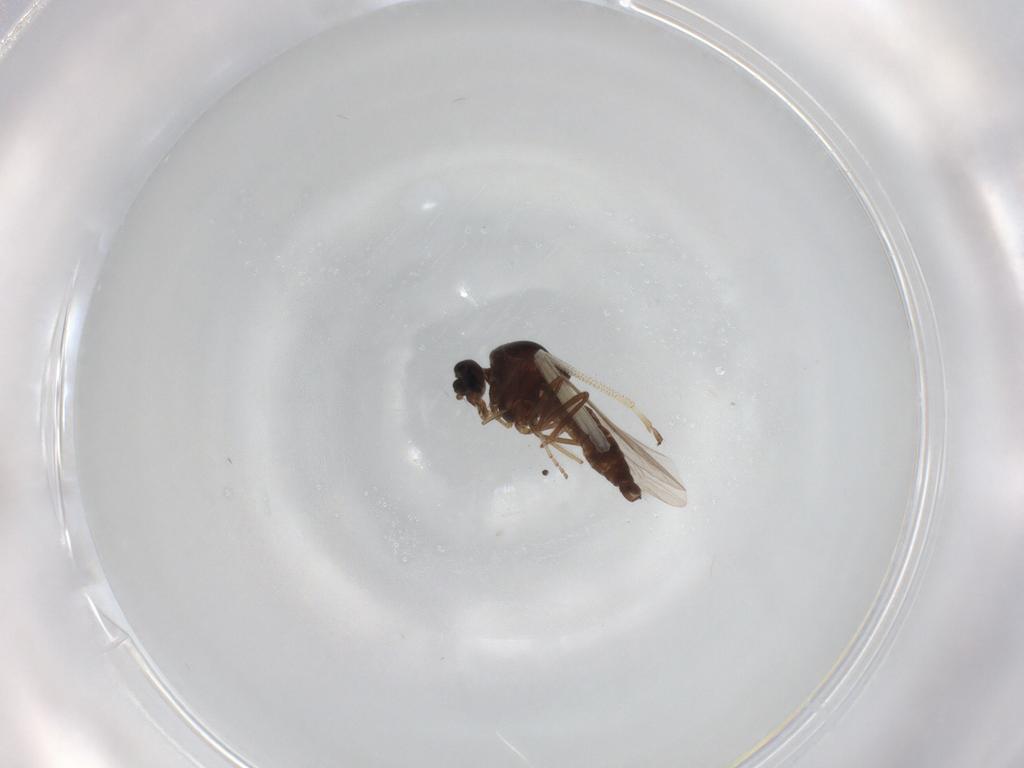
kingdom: Animalia
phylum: Arthropoda
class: Insecta
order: Diptera
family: Ceratopogonidae
